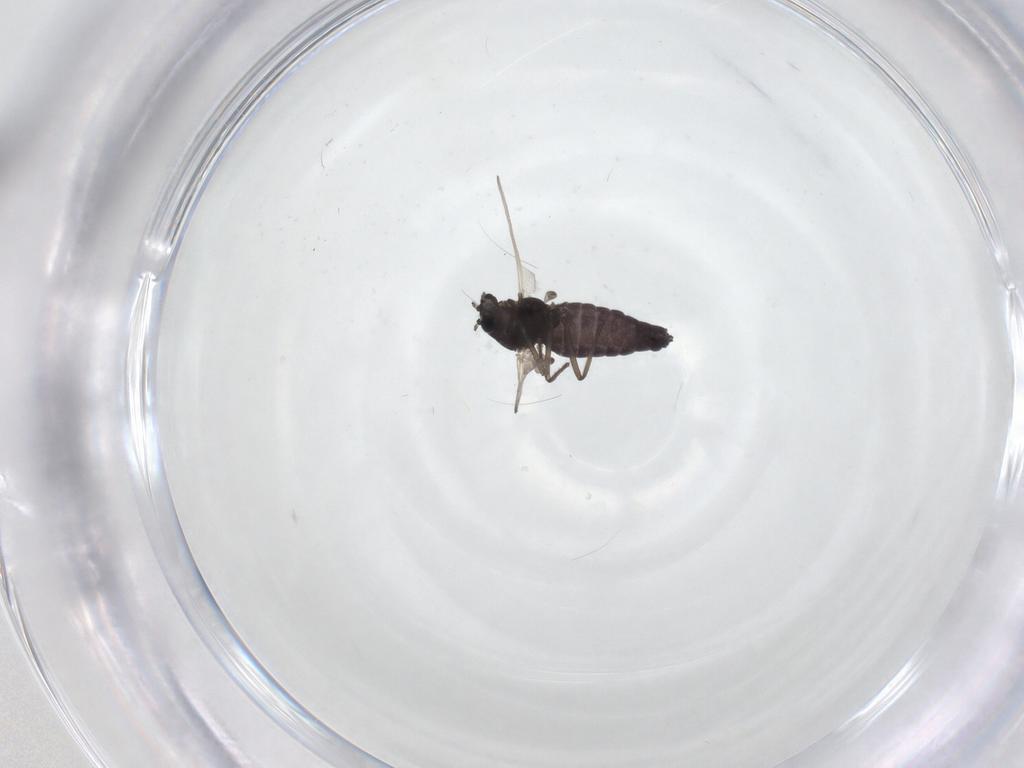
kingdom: Animalia
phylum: Arthropoda
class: Insecta
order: Diptera
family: Chironomidae
